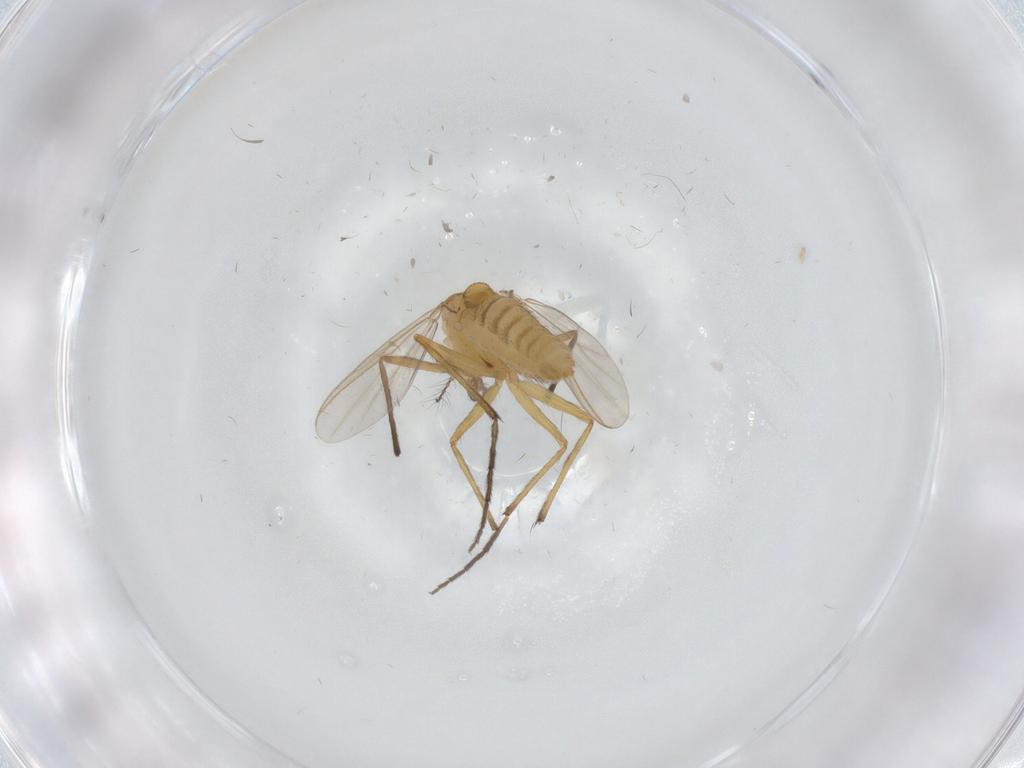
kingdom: Animalia
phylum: Arthropoda
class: Insecta
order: Diptera
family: Chironomidae
